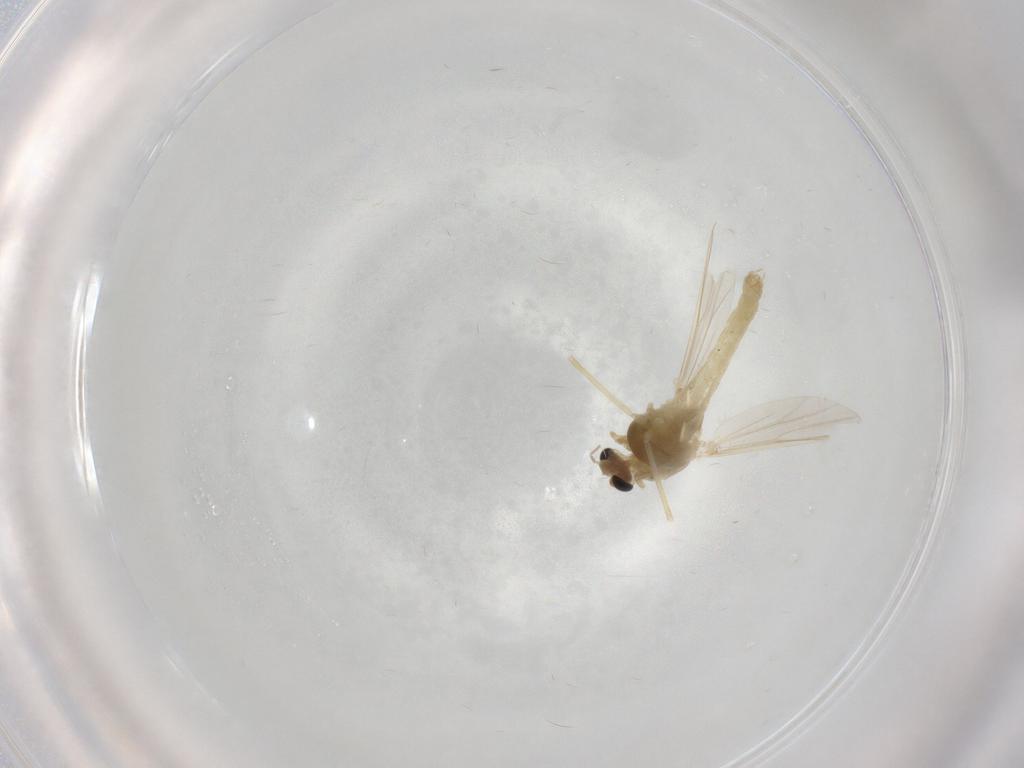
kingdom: Animalia
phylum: Arthropoda
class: Insecta
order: Diptera
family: Chironomidae
